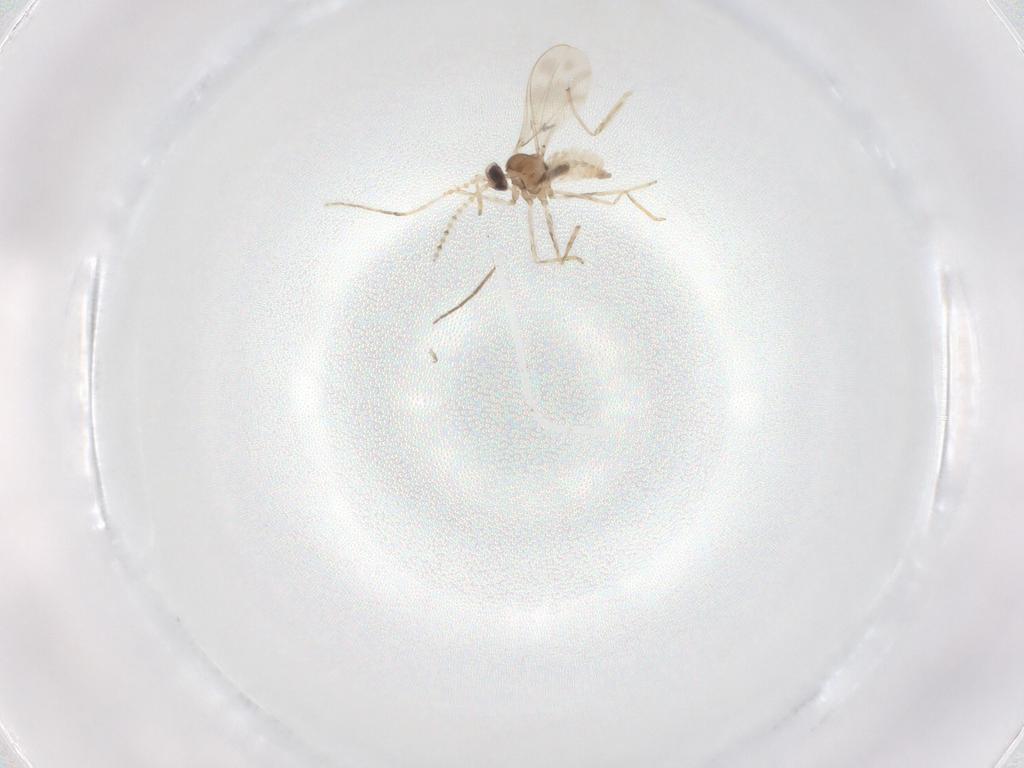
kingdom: Animalia
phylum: Arthropoda
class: Insecta
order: Diptera
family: Cecidomyiidae
